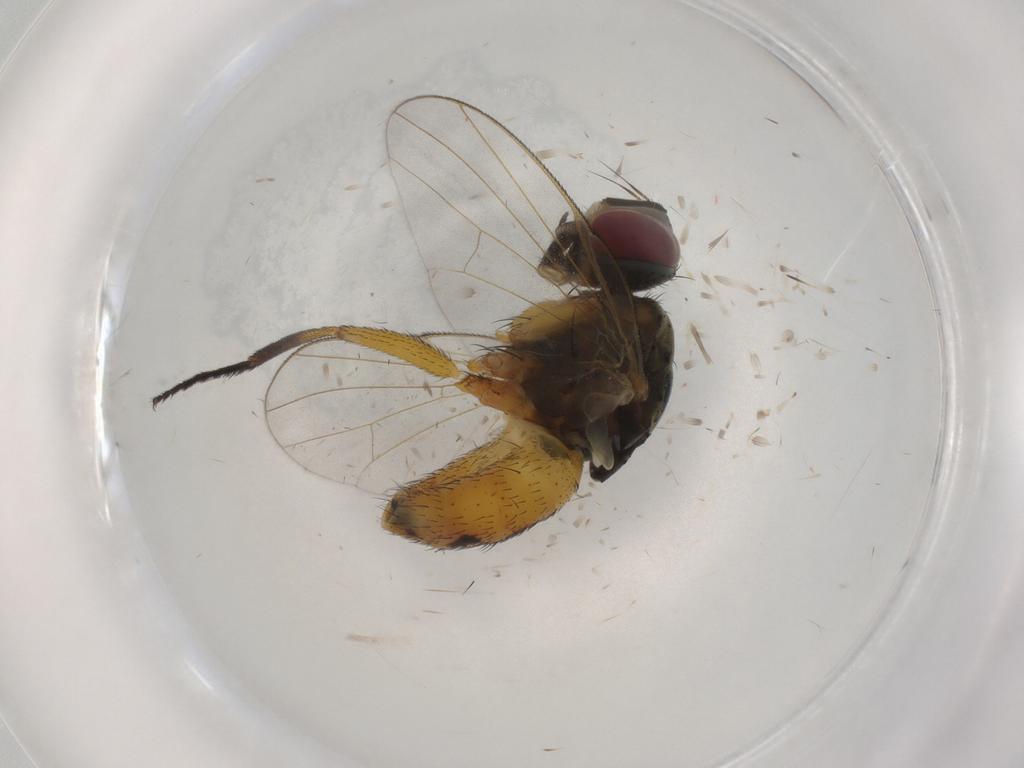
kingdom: Animalia
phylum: Arthropoda
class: Insecta
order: Diptera
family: Muscidae
